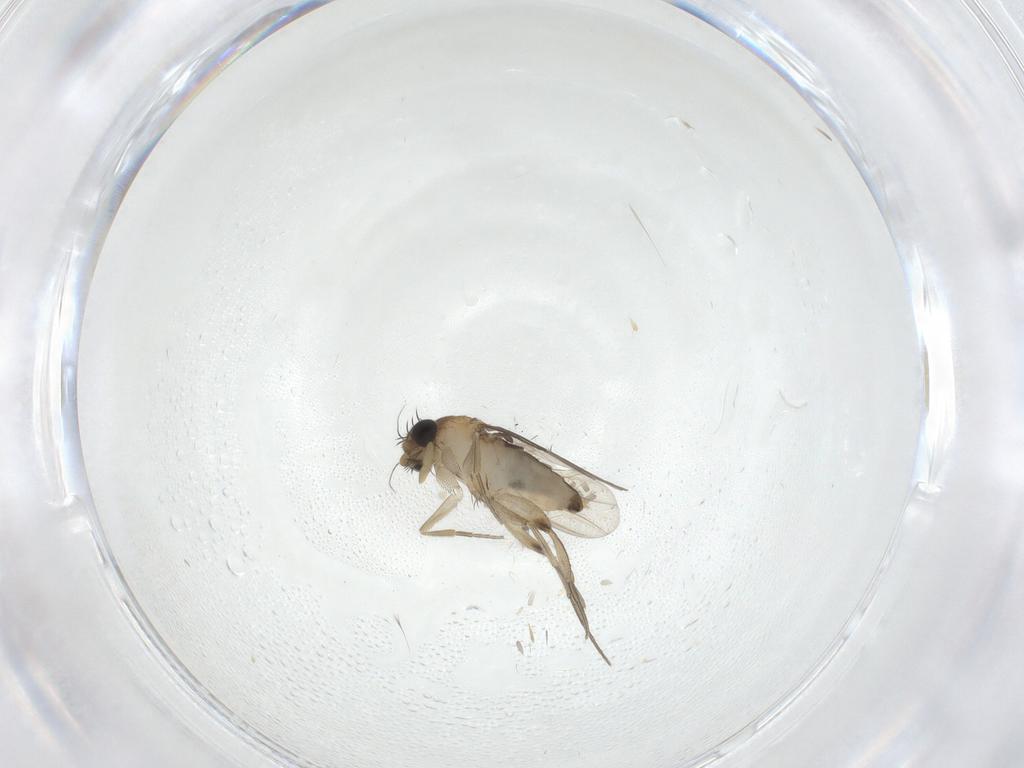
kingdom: Animalia
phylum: Arthropoda
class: Insecta
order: Diptera
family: Phoridae
